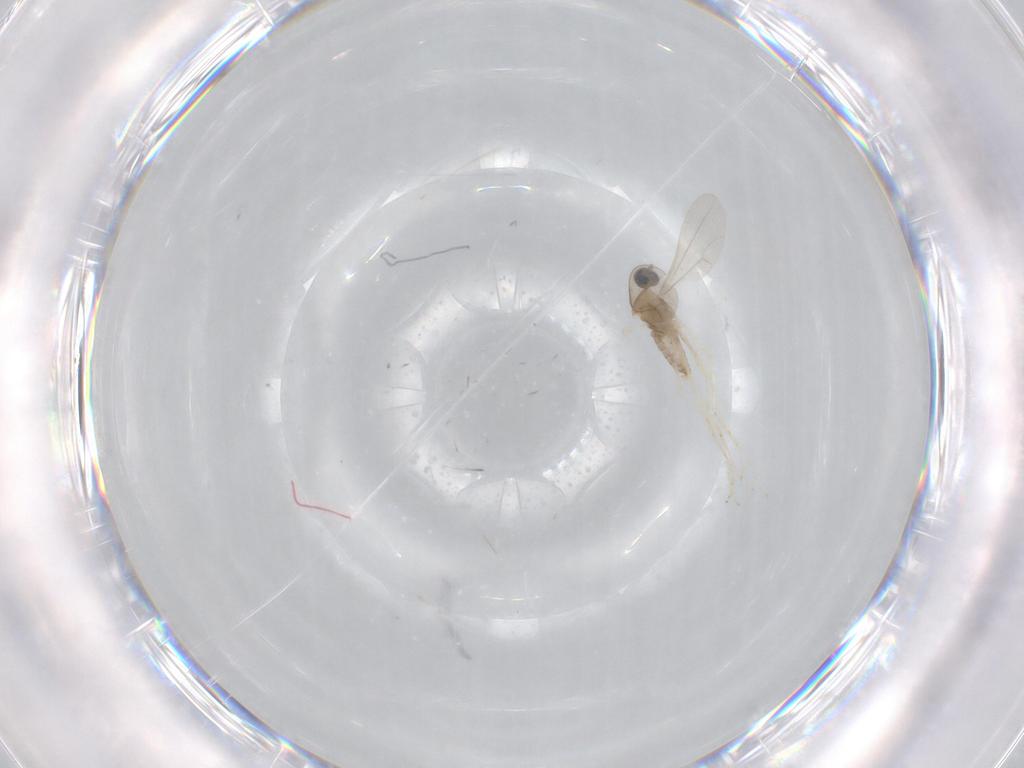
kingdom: Animalia
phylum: Arthropoda
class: Insecta
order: Diptera
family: Cecidomyiidae
